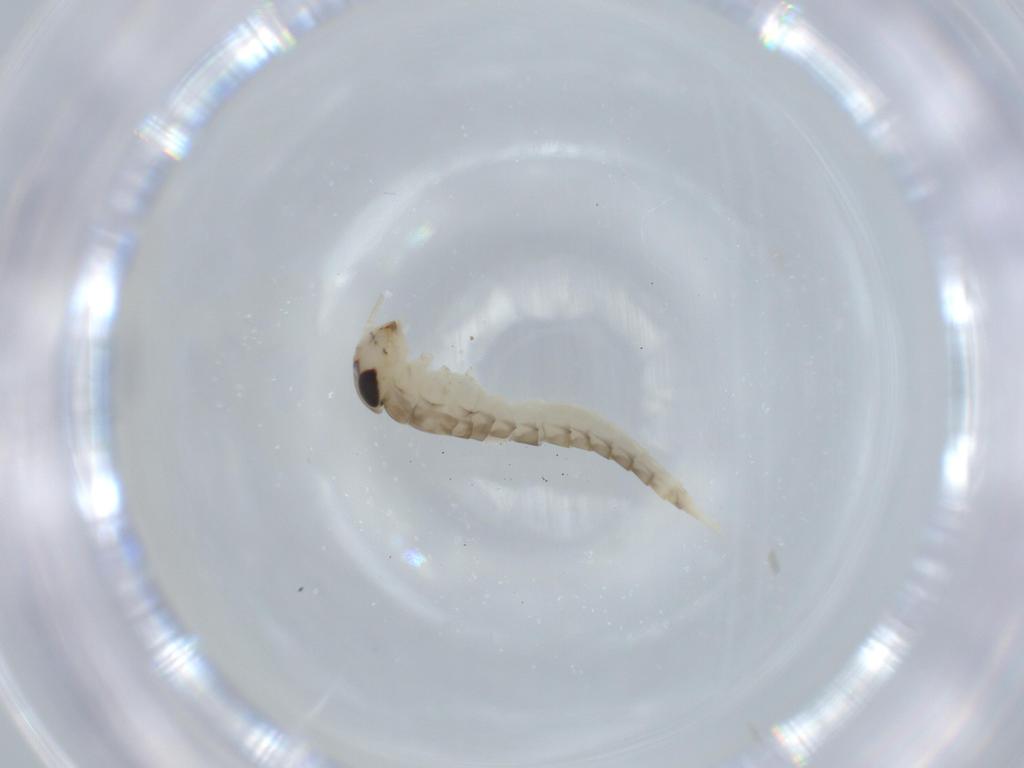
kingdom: Animalia
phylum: Arthropoda
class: Insecta
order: Ephemeroptera
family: Baetidae
